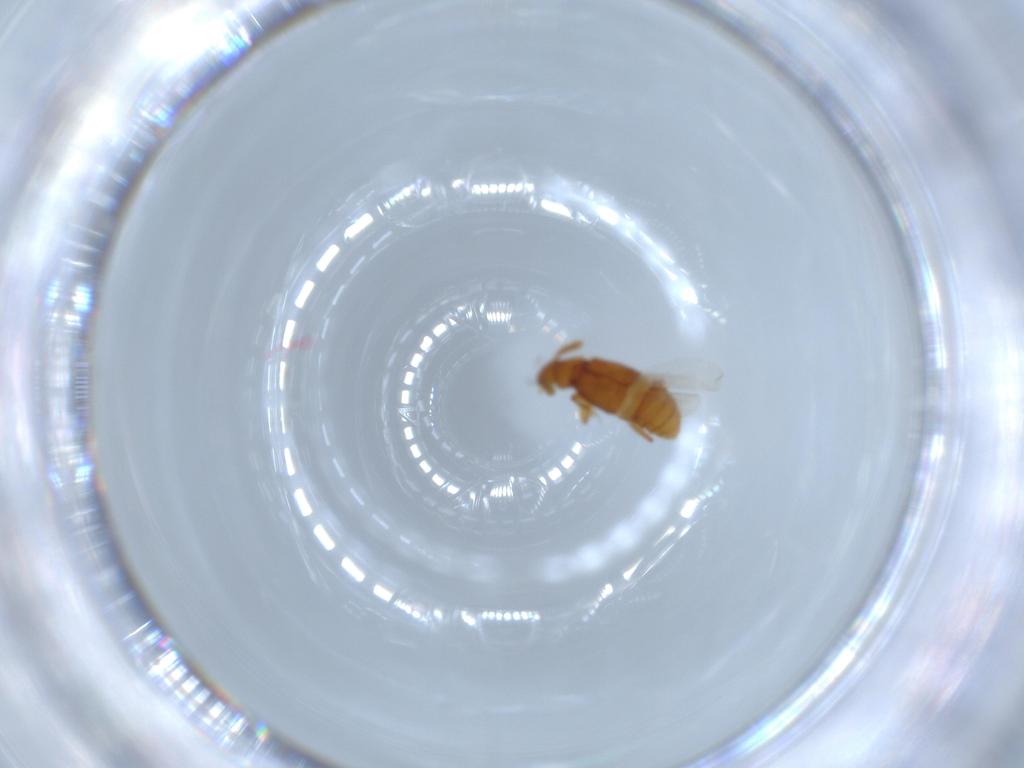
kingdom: Animalia
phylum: Arthropoda
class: Insecta
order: Coleoptera
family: Staphylinidae
